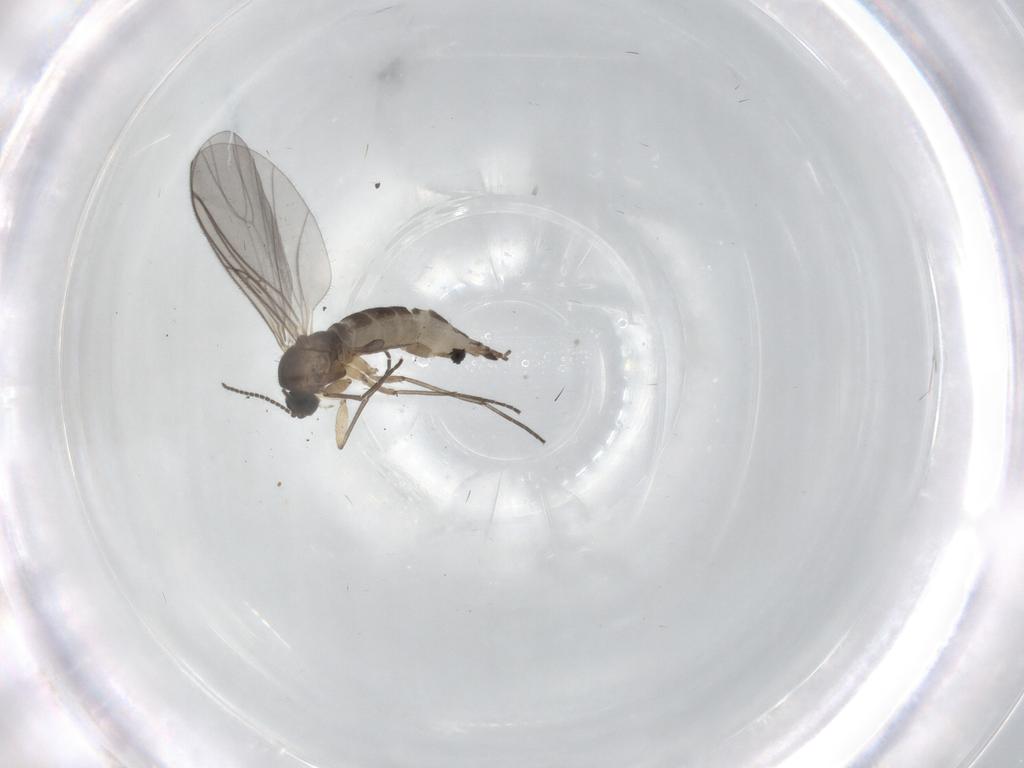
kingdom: Animalia
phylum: Arthropoda
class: Insecta
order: Diptera
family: Sciaridae
